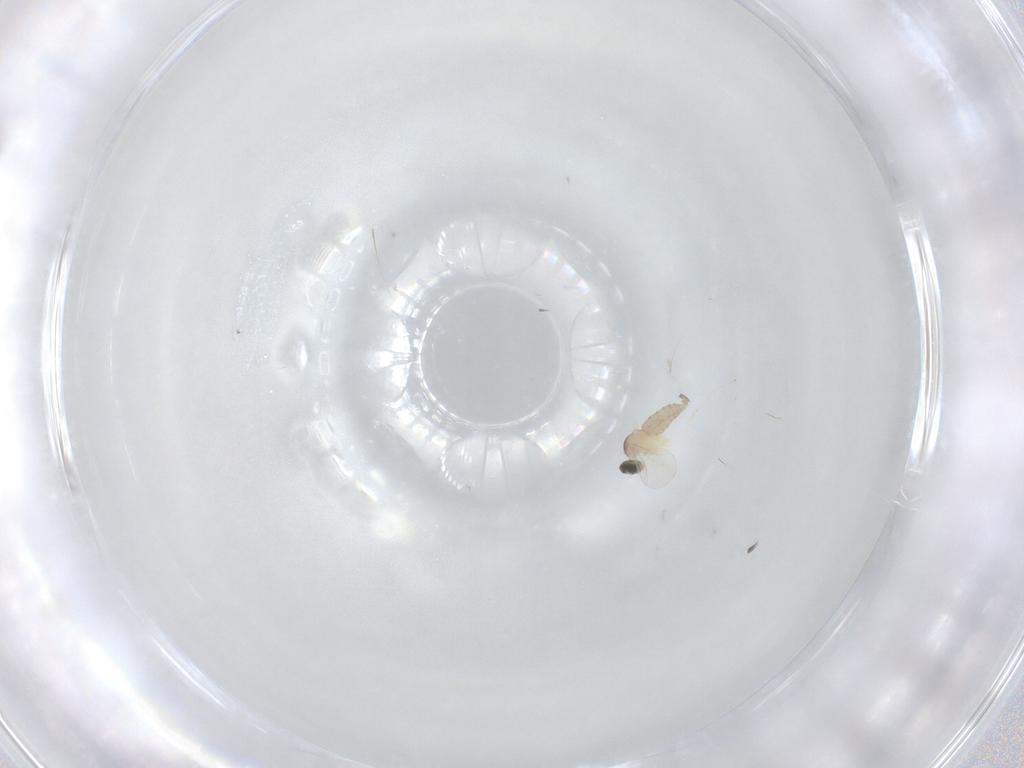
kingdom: Animalia
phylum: Arthropoda
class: Insecta
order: Diptera
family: Cecidomyiidae
